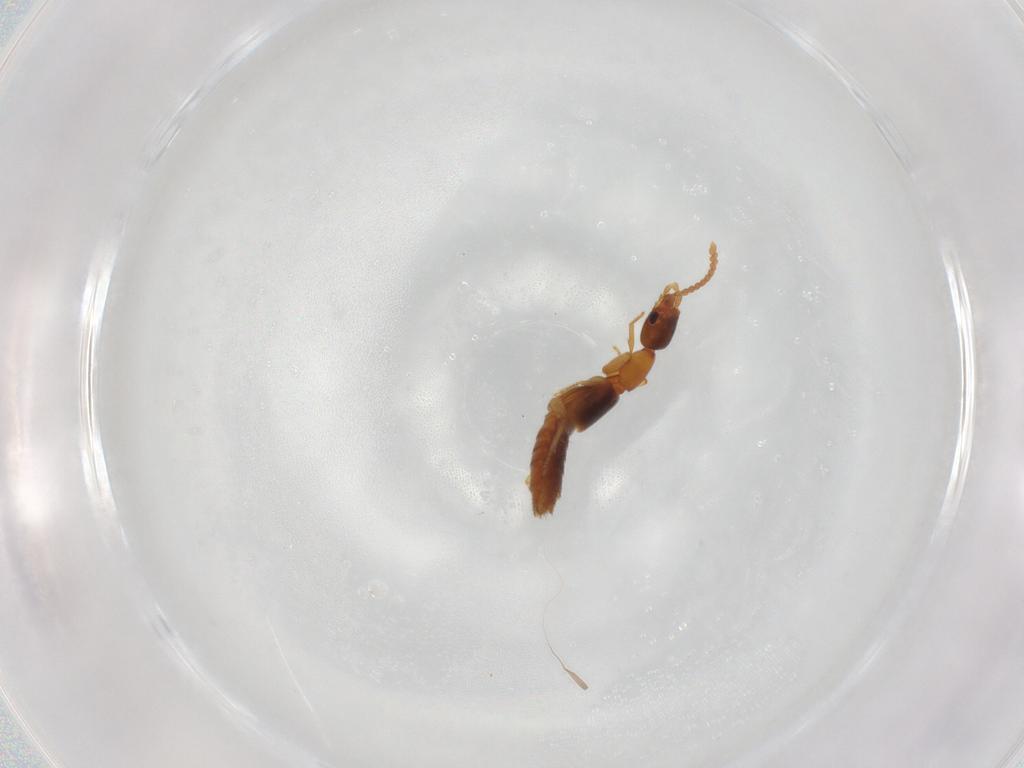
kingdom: Animalia
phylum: Arthropoda
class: Insecta
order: Coleoptera
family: Staphylinidae
